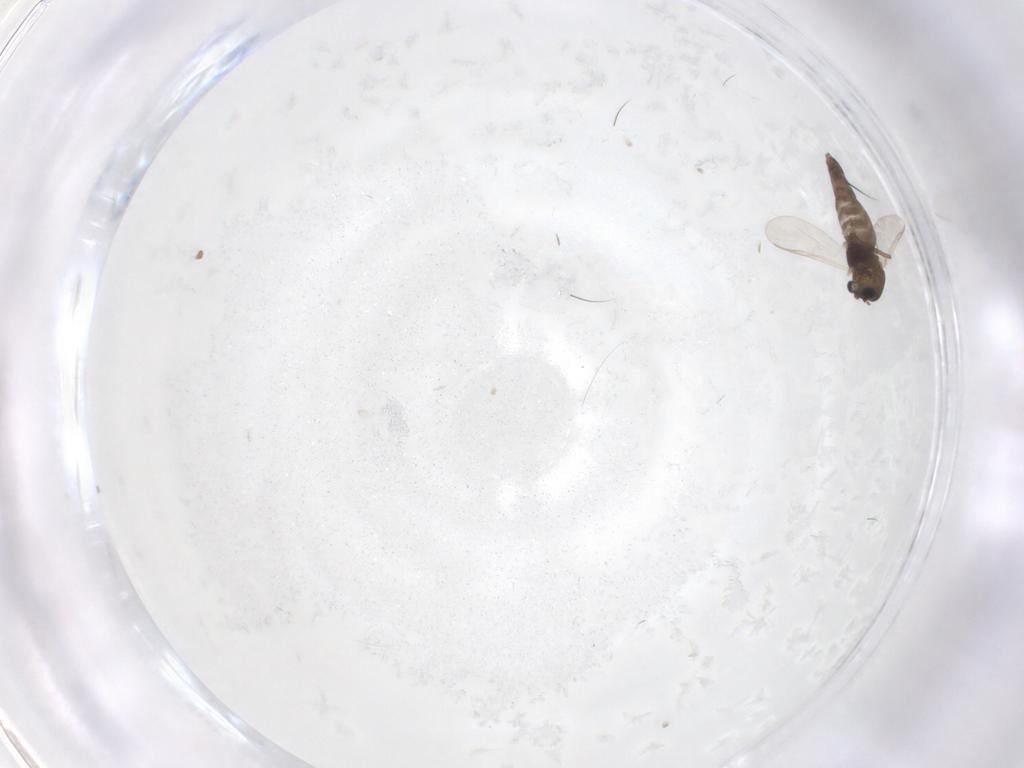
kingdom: Animalia
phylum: Arthropoda
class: Insecta
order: Diptera
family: Chironomidae
